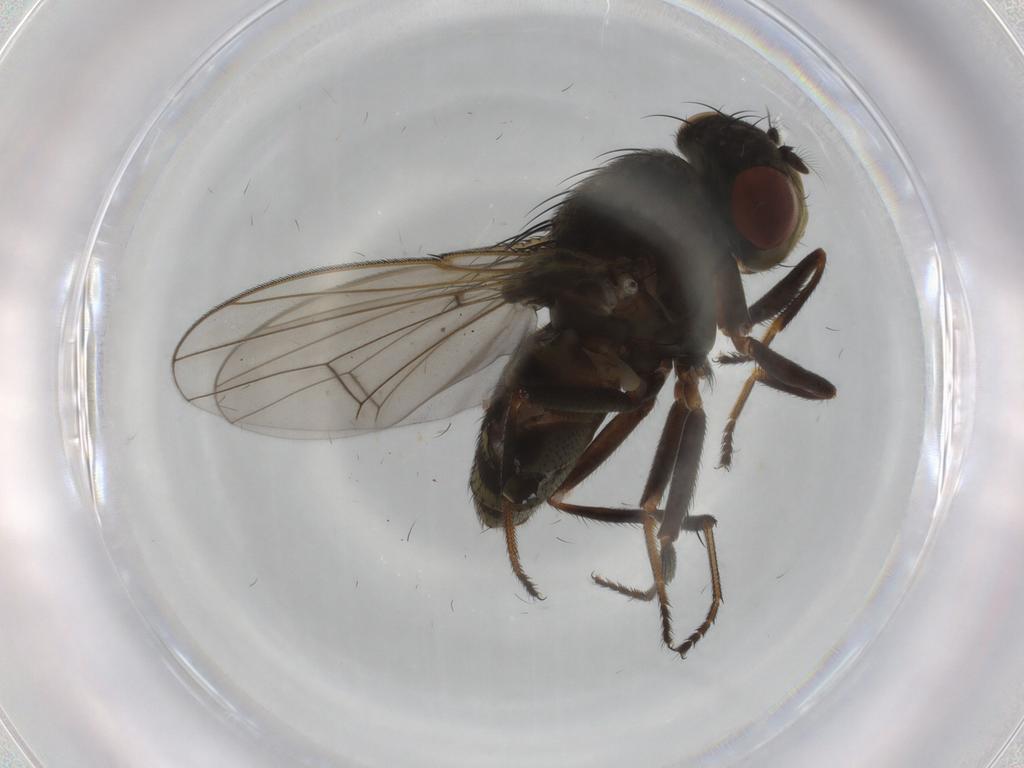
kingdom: Animalia
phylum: Arthropoda
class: Insecta
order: Diptera
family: Ephydridae
